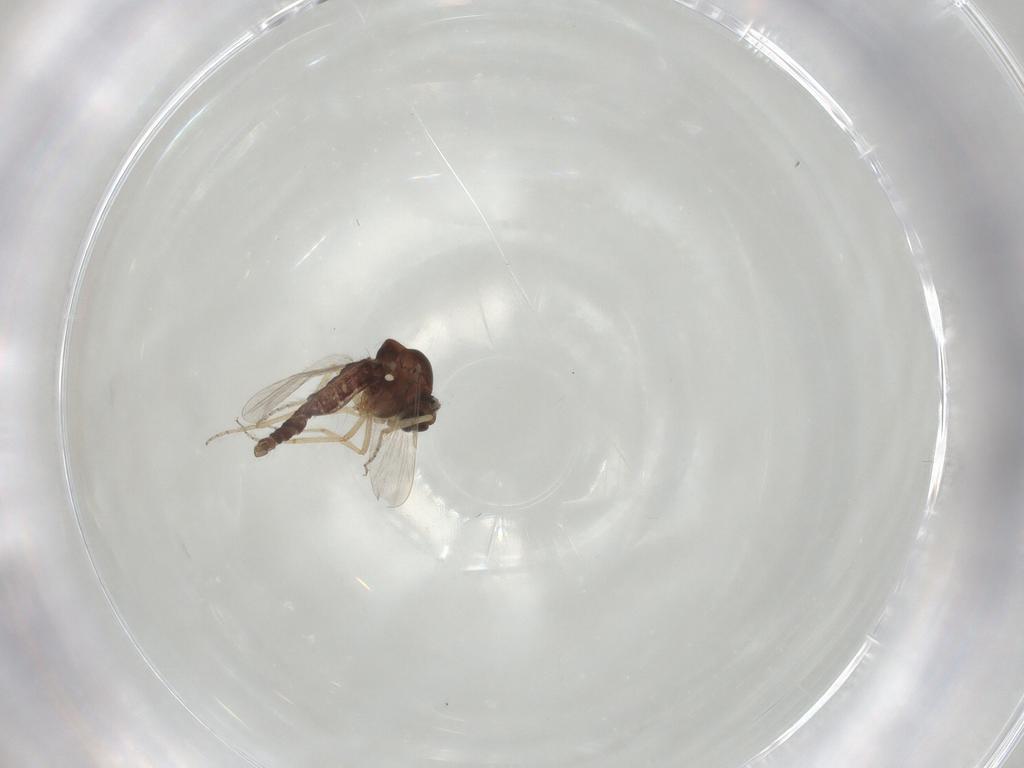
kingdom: Animalia
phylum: Arthropoda
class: Insecta
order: Diptera
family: Ceratopogonidae
